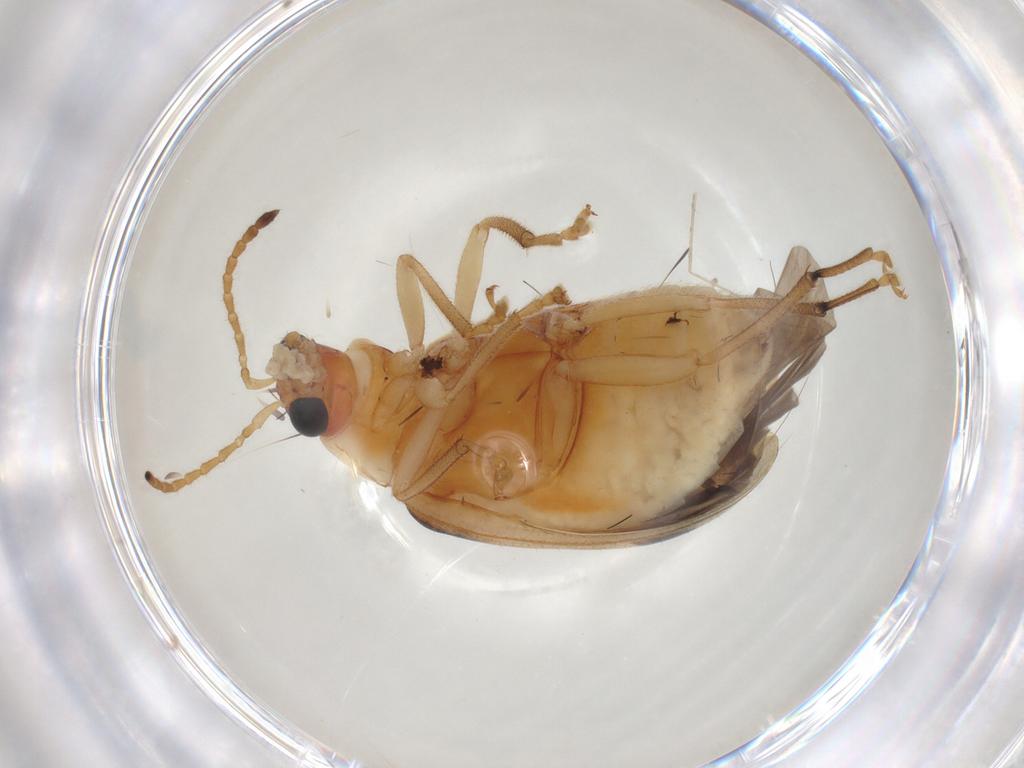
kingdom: Animalia
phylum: Arthropoda
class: Insecta
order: Coleoptera
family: Chrysomelidae
